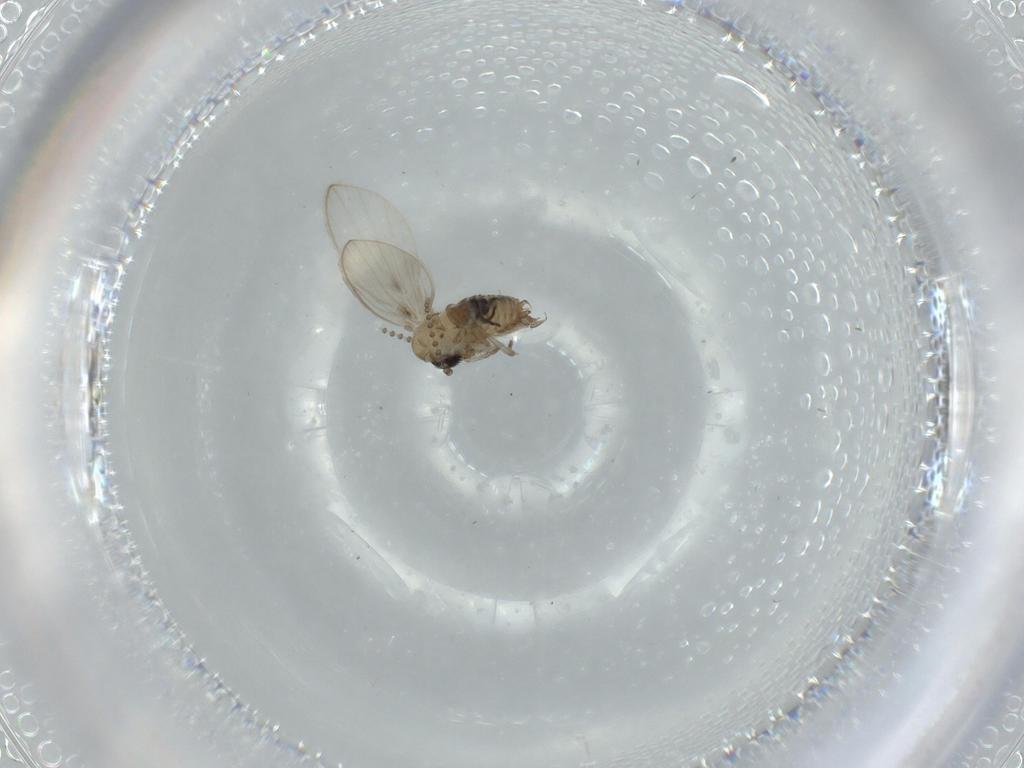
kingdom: Animalia
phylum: Arthropoda
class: Insecta
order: Diptera
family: Psychodidae
